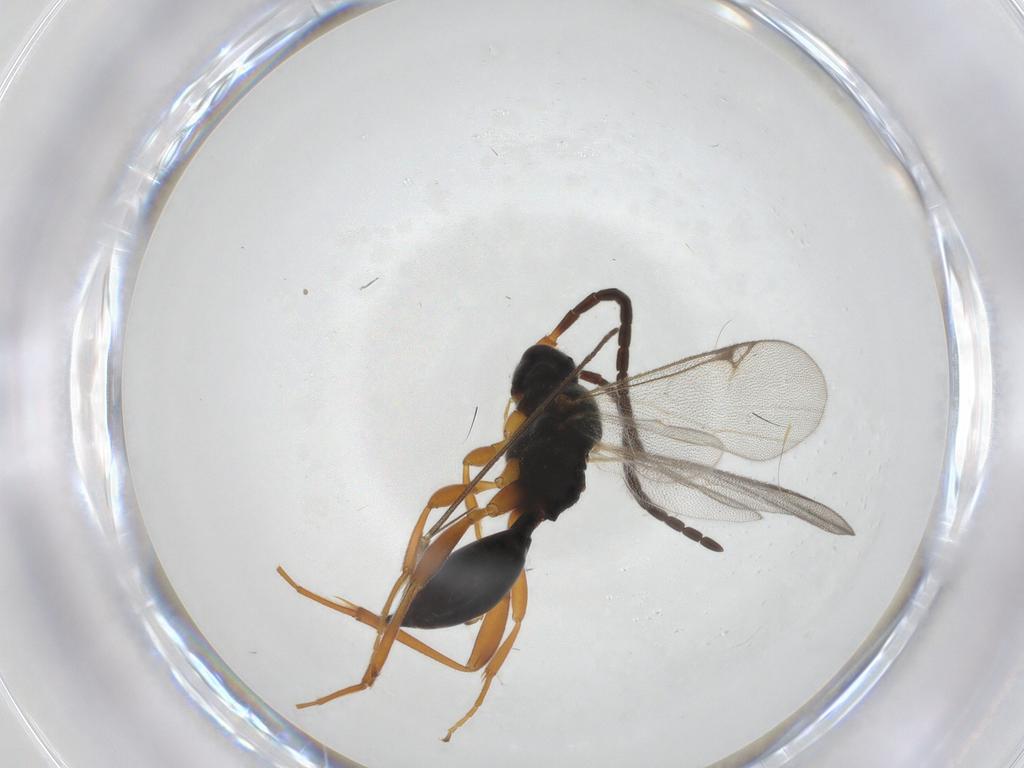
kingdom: Animalia
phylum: Arthropoda
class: Insecta
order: Hymenoptera
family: Proctotrupidae
